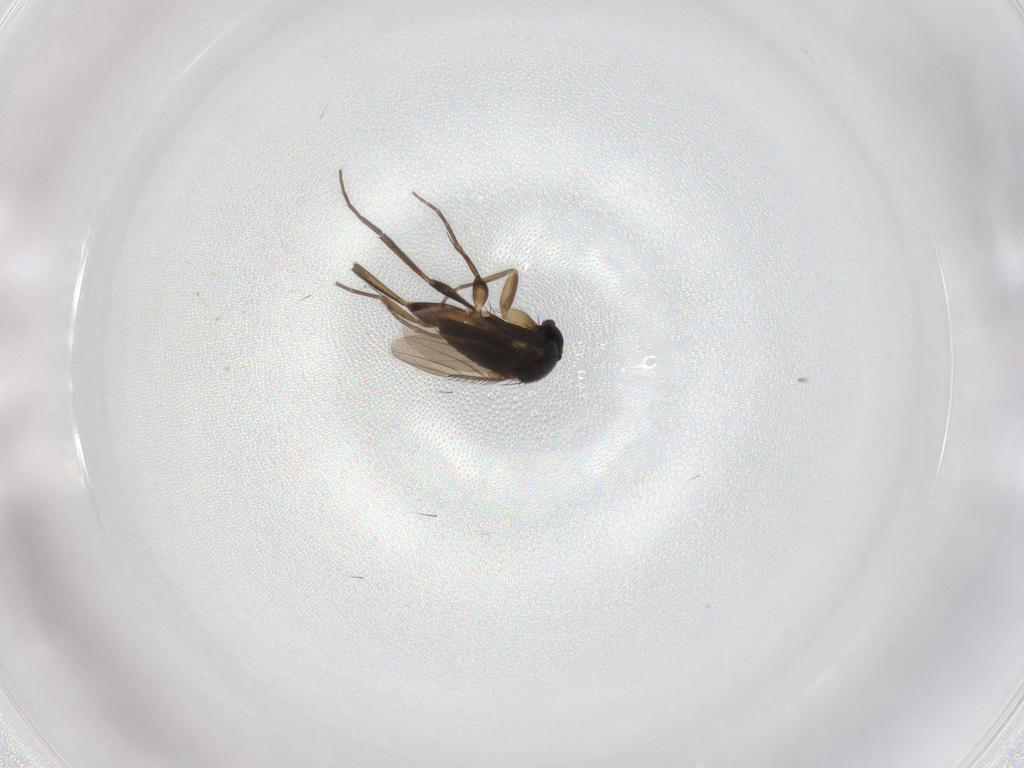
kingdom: Animalia
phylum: Arthropoda
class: Insecta
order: Diptera
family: Phoridae
